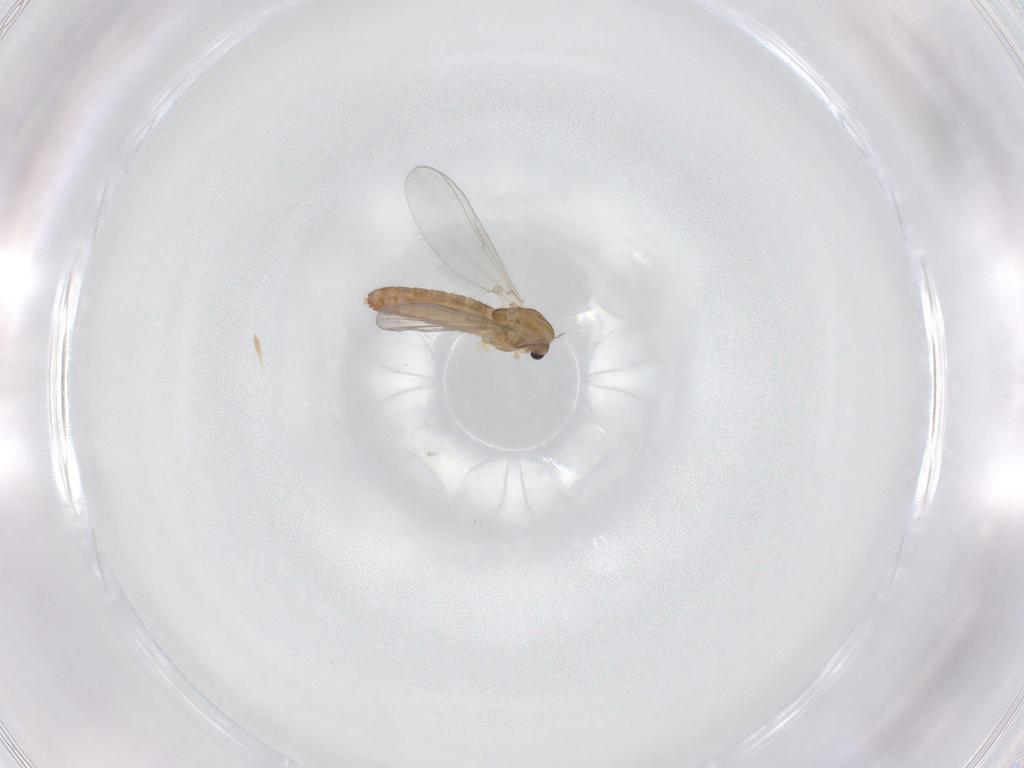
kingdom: Animalia
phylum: Arthropoda
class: Insecta
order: Diptera
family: Chironomidae
